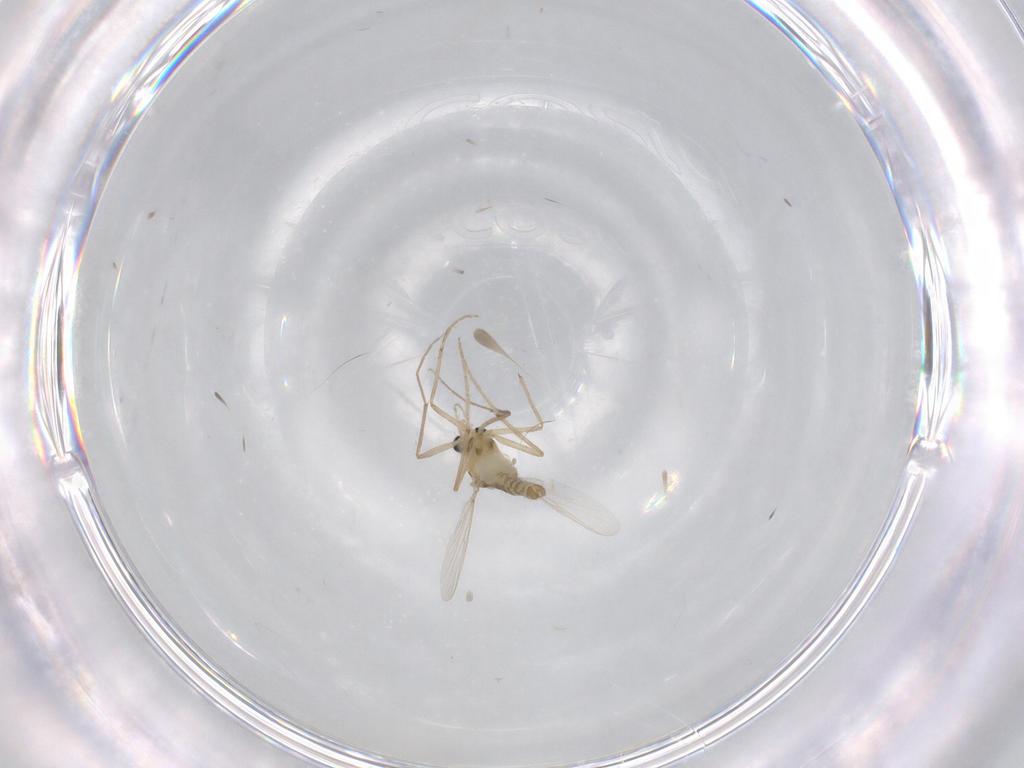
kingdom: Animalia
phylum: Arthropoda
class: Insecta
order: Diptera
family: Chironomidae
